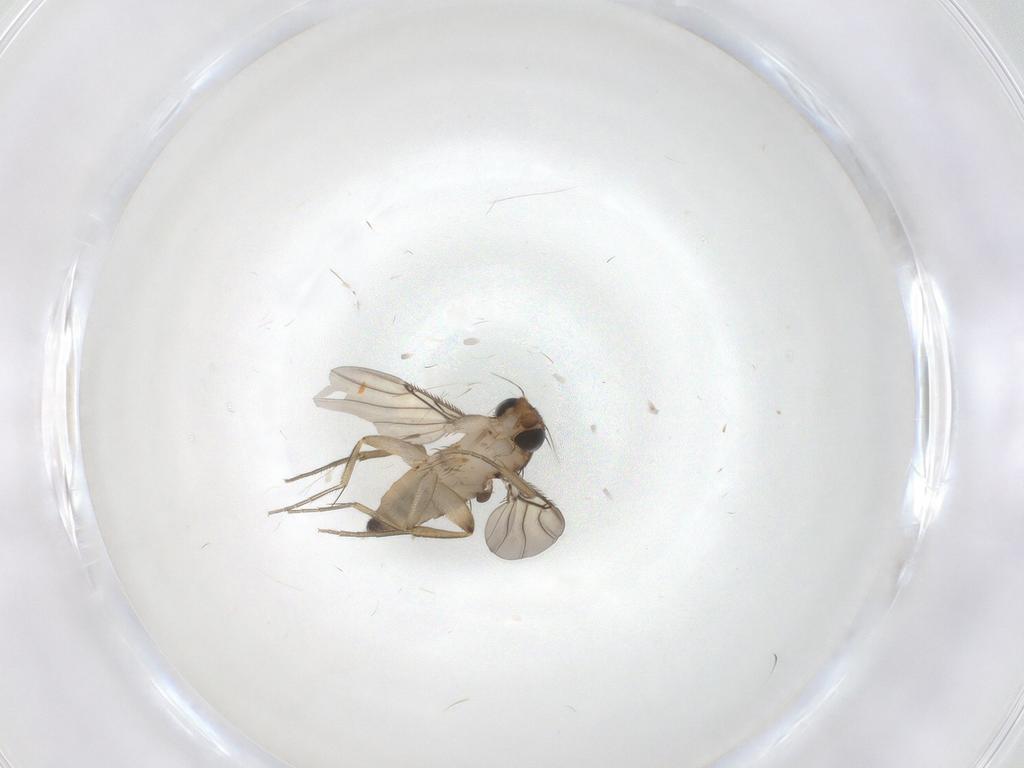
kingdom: Animalia
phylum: Arthropoda
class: Insecta
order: Diptera
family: Phoridae
